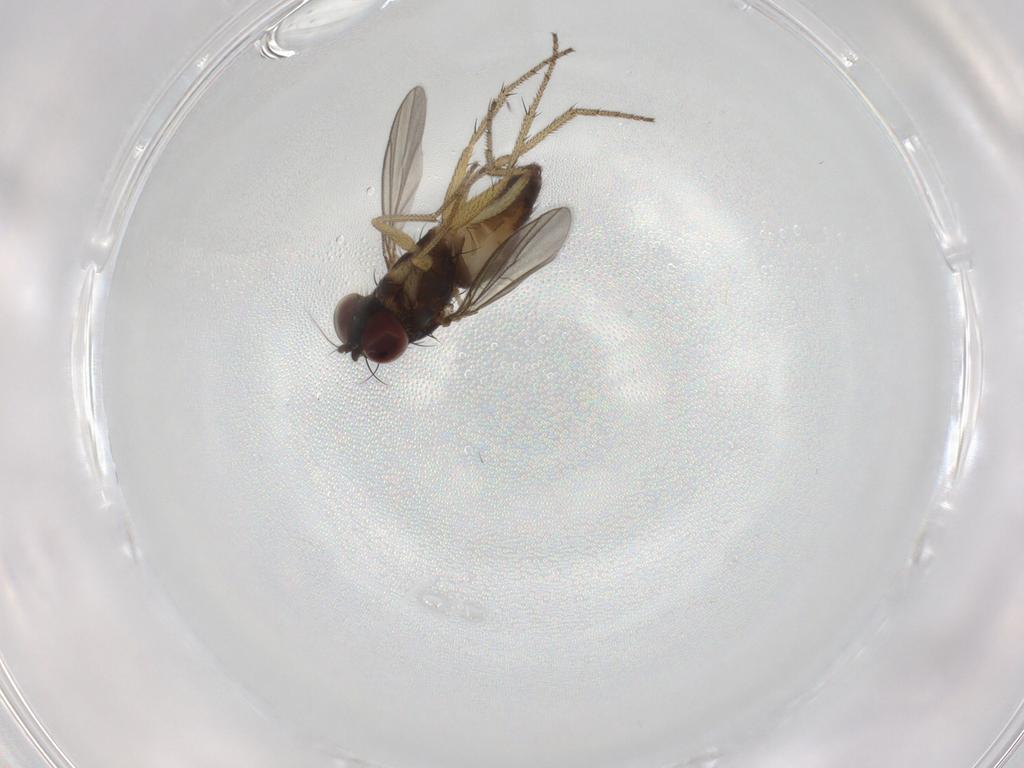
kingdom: Animalia
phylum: Arthropoda
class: Insecta
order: Diptera
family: Dolichopodidae
